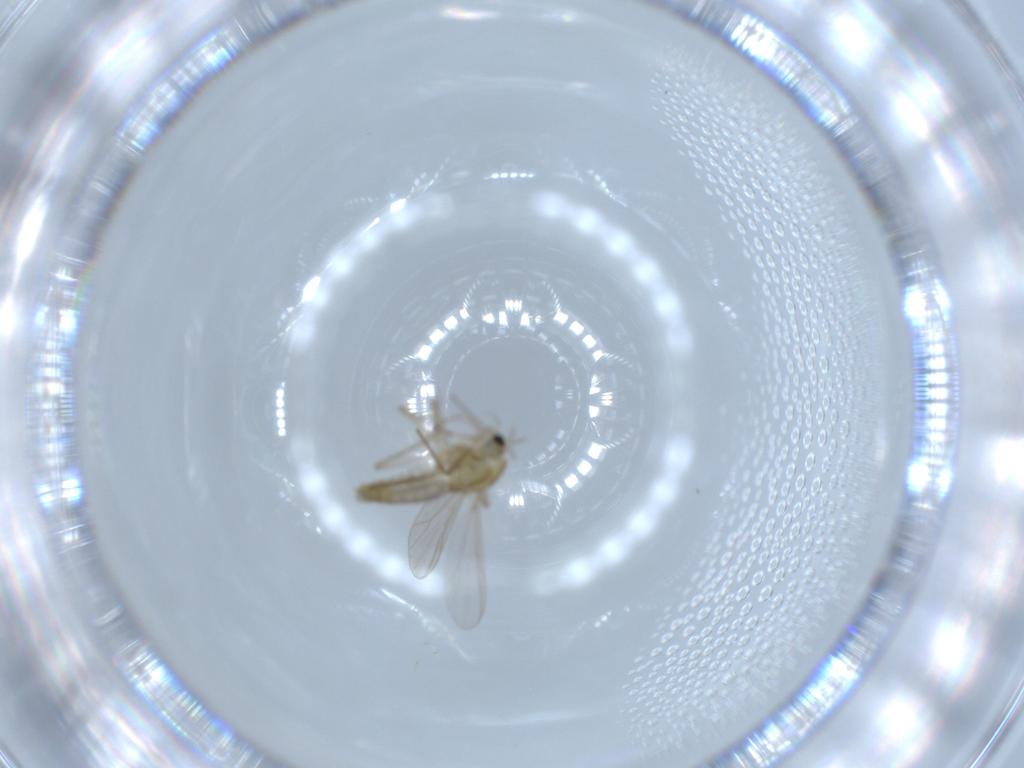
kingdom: Animalia
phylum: Arthropoda
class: Insecta
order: Diptera
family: Chironomidae
